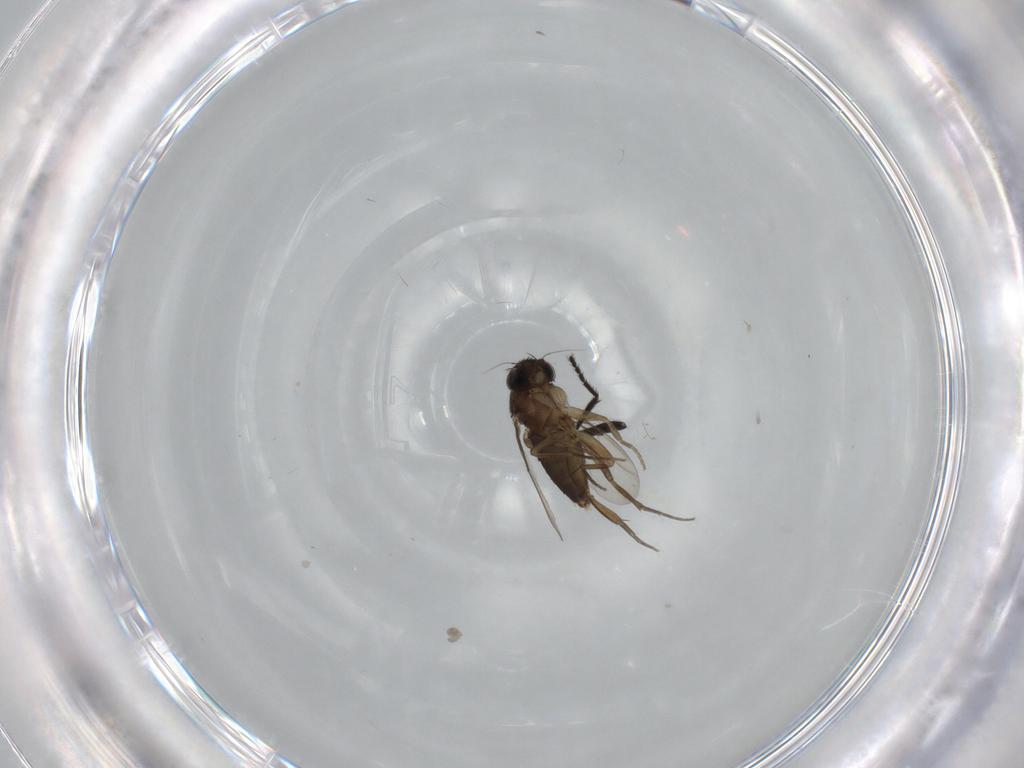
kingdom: Animalia
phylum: Arthropoda
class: Insecta
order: Diptera
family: Phoridae
